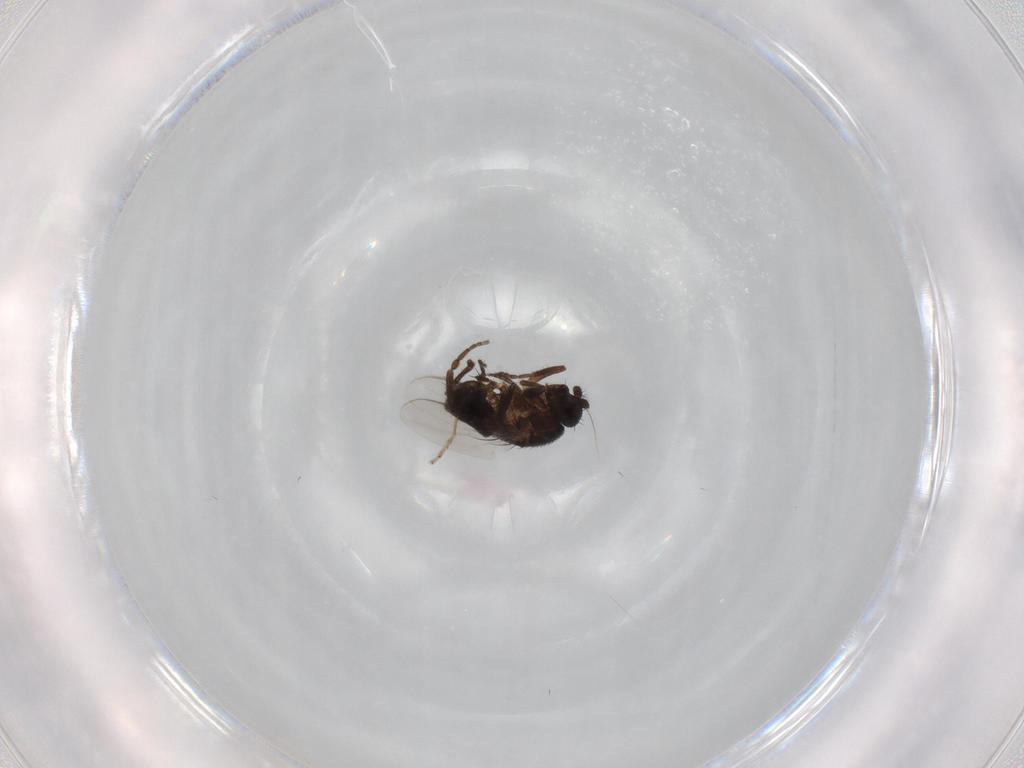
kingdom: Animalia
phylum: Arthropoda
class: Insecta
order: Diptera
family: Sphaeroceridae
